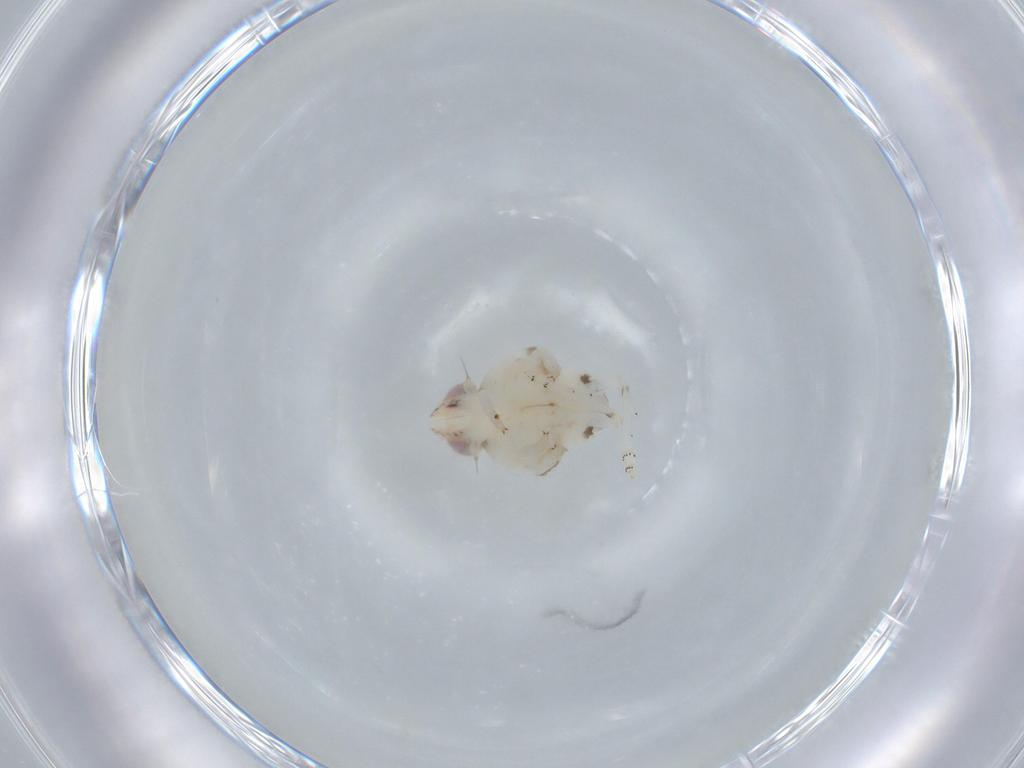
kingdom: Animalia
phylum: Arthropoda
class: Insecta
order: Hemiptera
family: Nogodinidae
